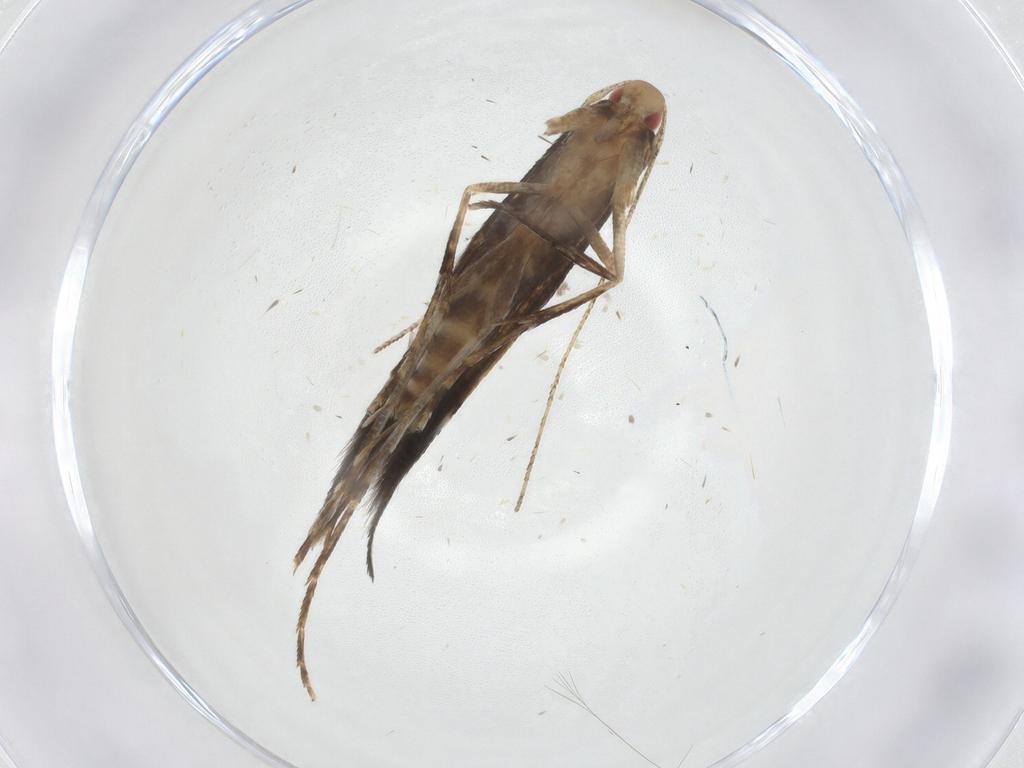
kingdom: Animalia
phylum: Arthropoda
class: Insecta
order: Lepidoptera
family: Cosmopterigidae
